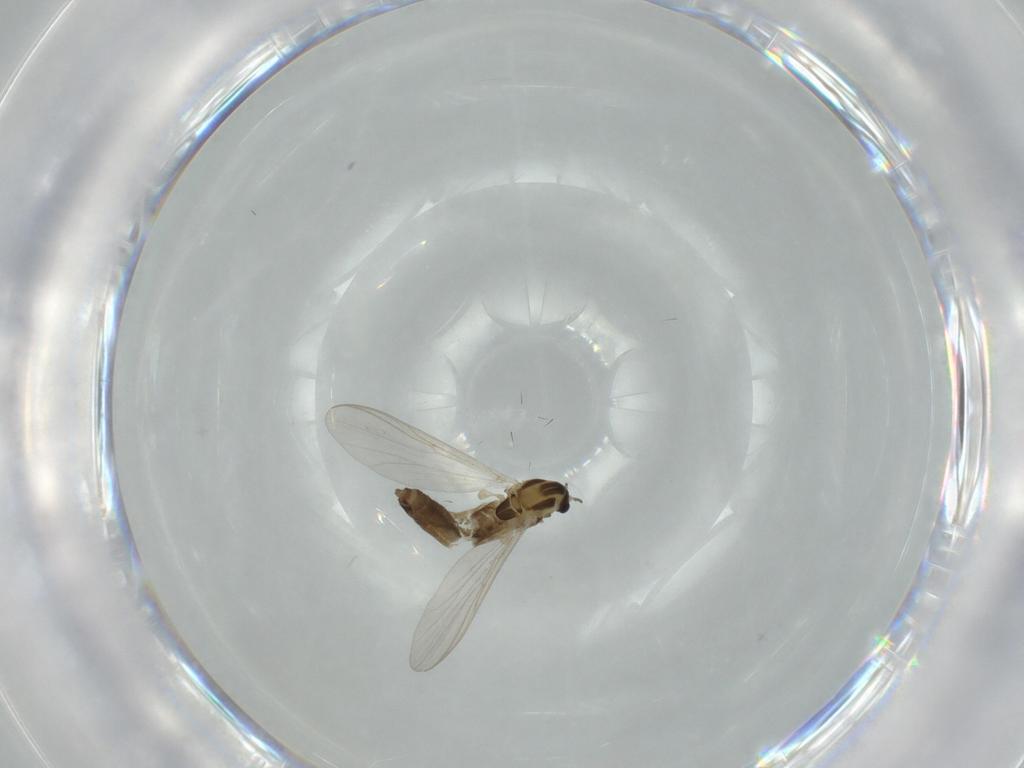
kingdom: Animalia
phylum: Arthropoda
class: Insecta
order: Diptera
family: Chironomidae
